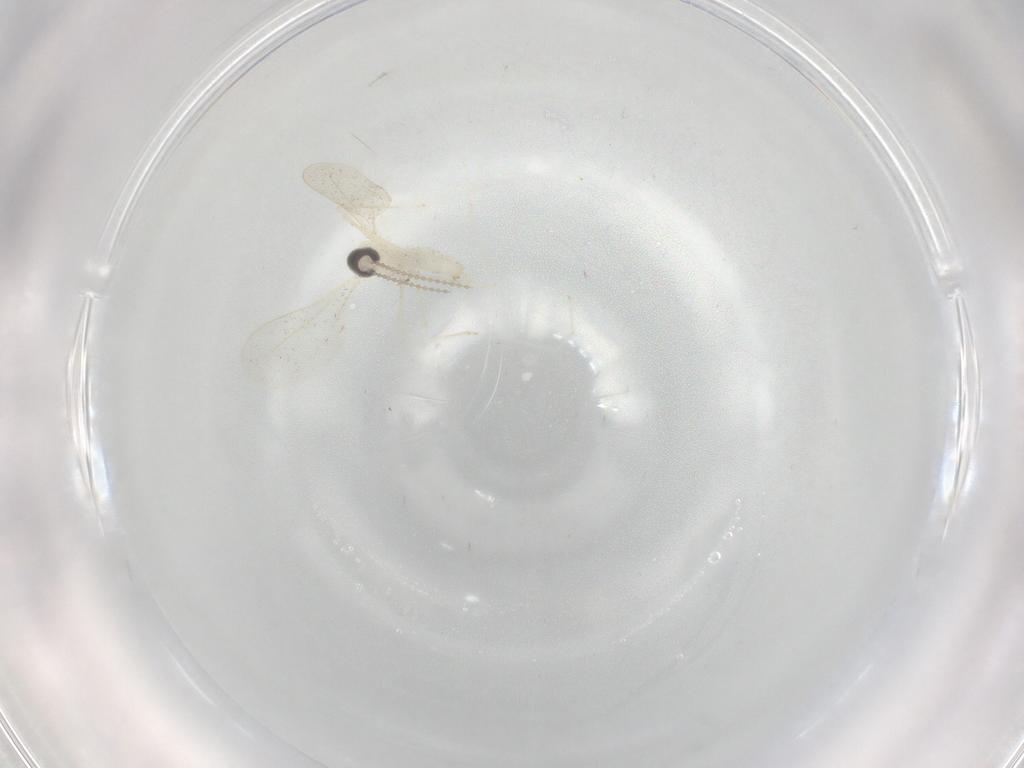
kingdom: Animalia
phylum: Arthropoda
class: Insecta
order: Diptera
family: Cecidomyiidae
